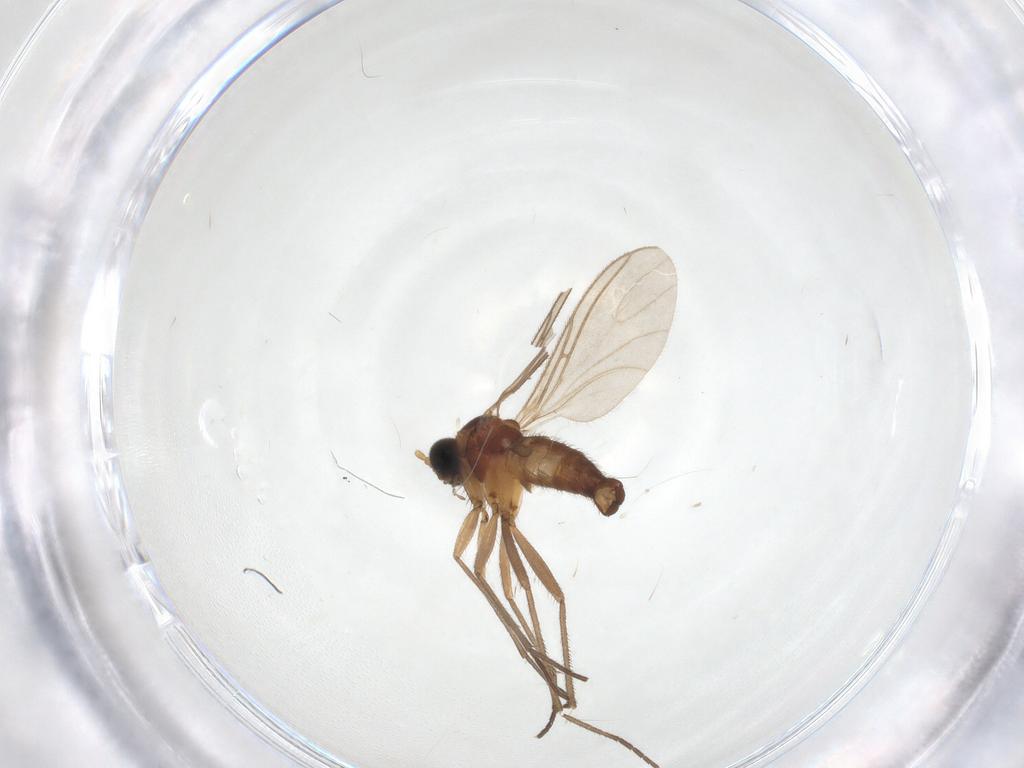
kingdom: Animalia
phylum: Arthropoda
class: Insecta
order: Diptera
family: Sciaridae
